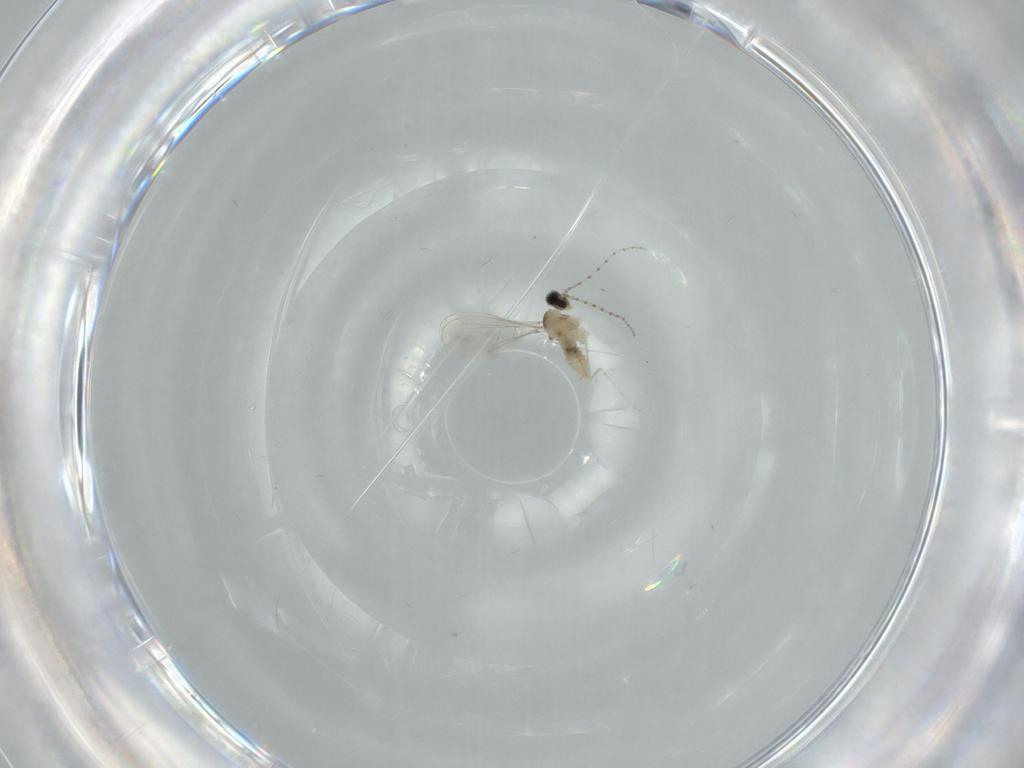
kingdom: Animalia
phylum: Arthropoda
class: Insecta
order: Diptera
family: Cecidomyiidae
